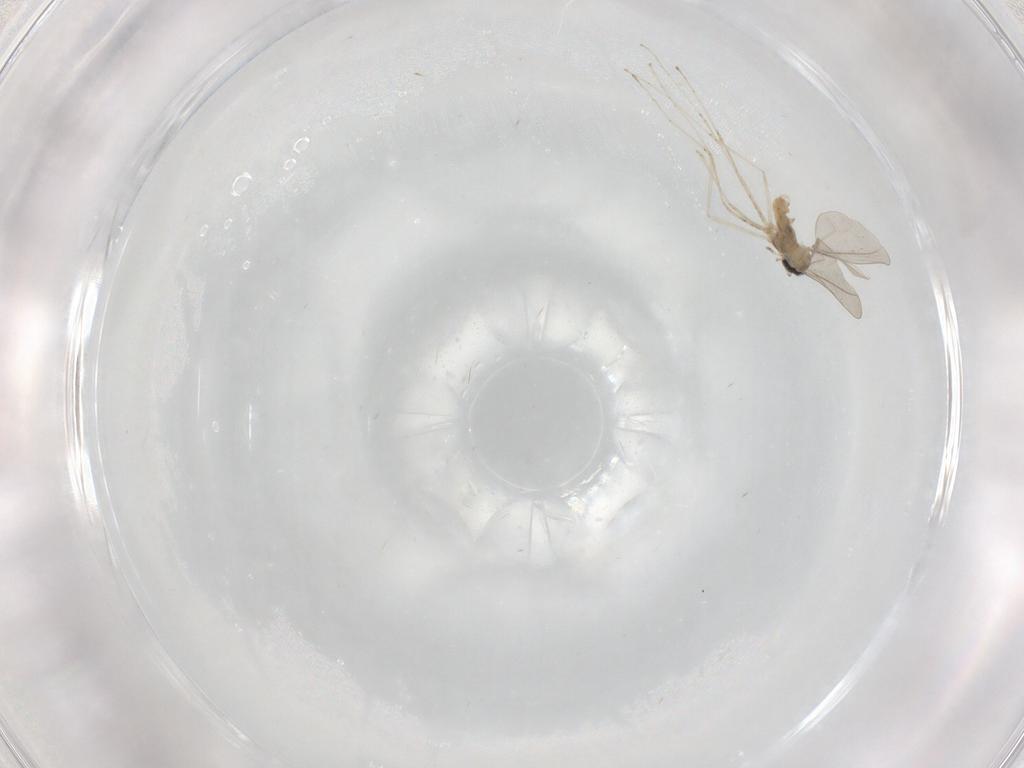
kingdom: Animalia
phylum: Arthropoda
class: Insecta
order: Diptera
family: Cecidomyiidae
